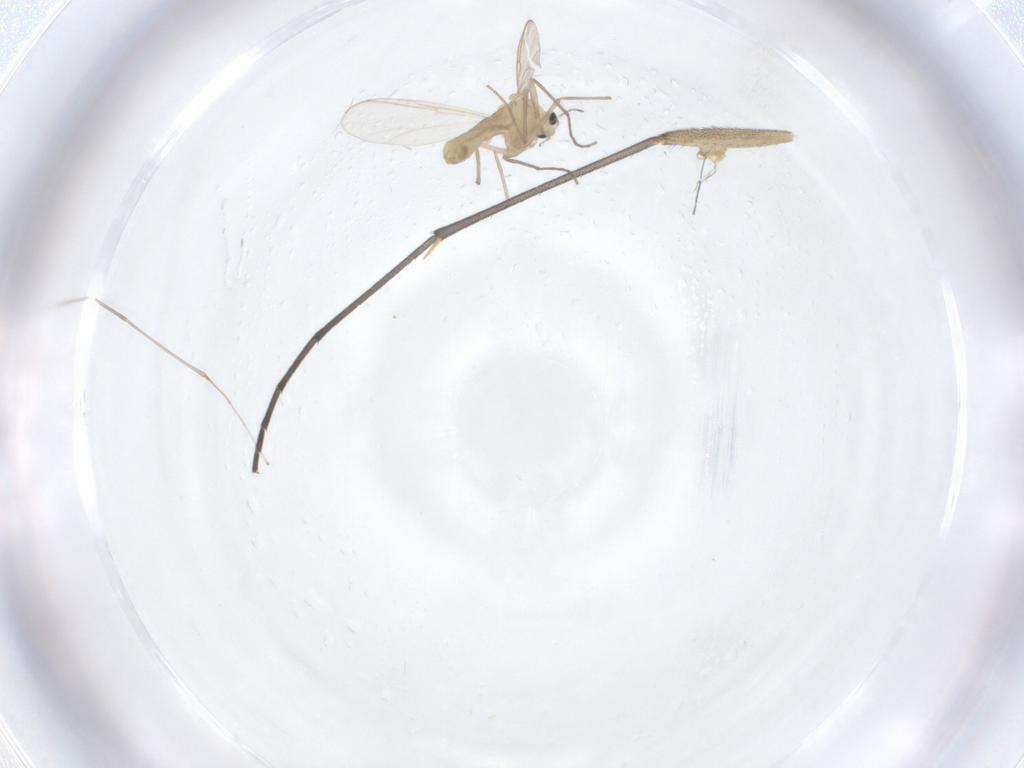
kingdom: Animalia
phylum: Arthropoda
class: Insecta
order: Diptera
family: Chironomidae
